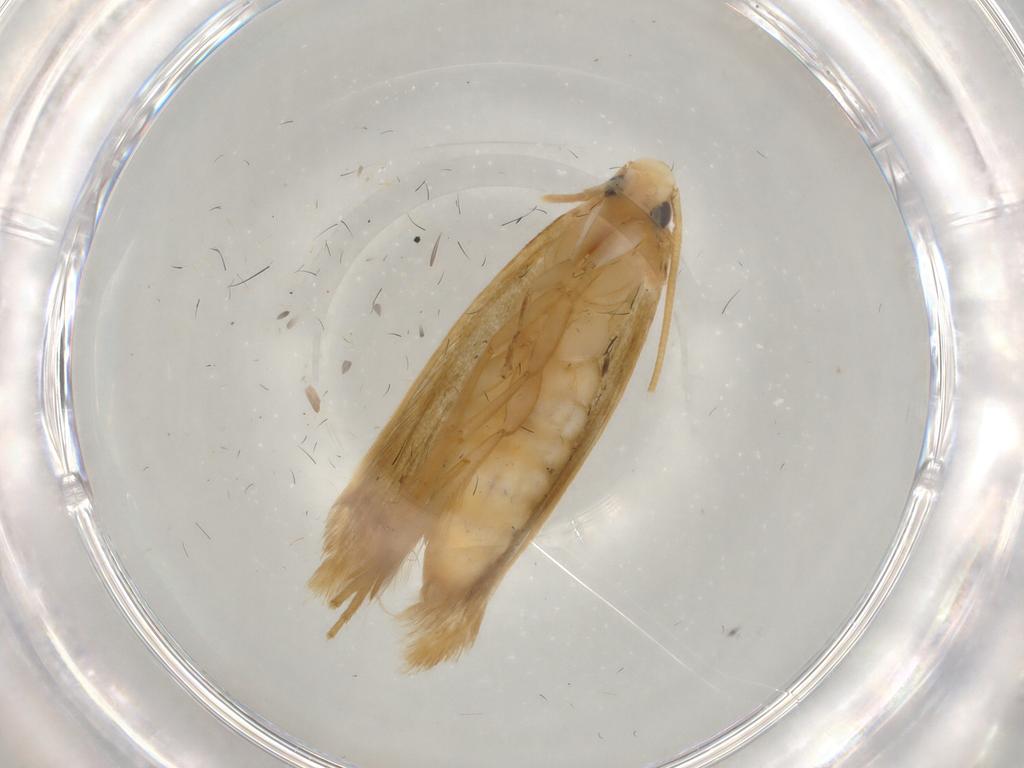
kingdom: Animalia
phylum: Arthropoda
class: Insecta
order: Lepidoptera
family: Tineidae
